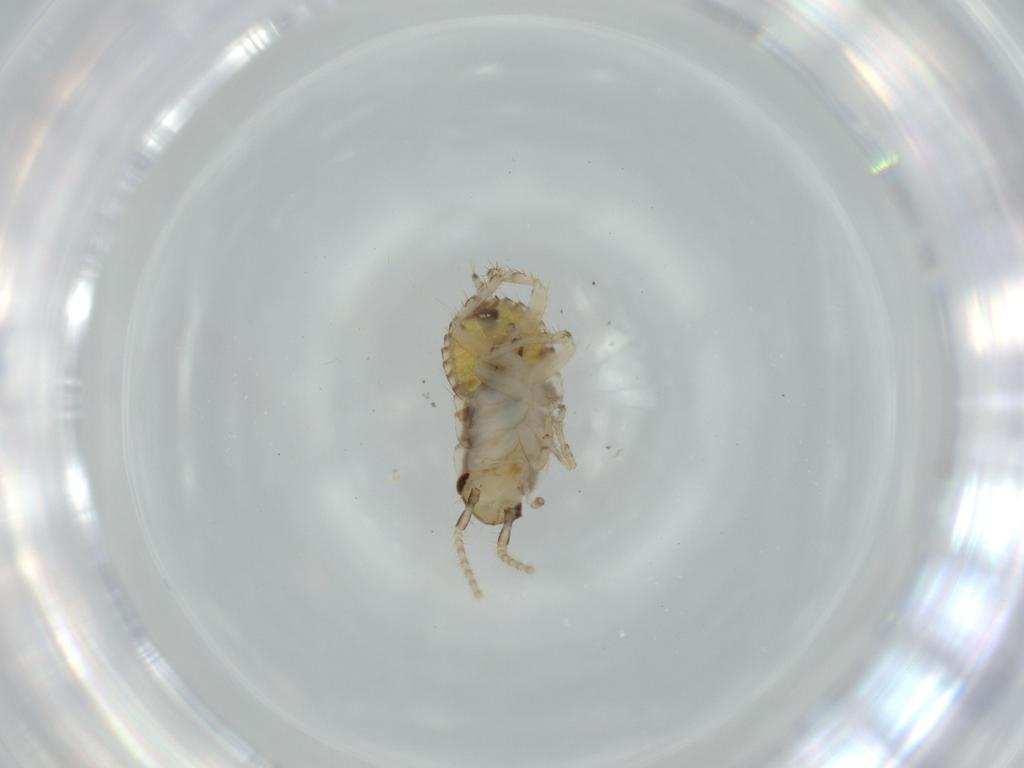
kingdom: Animalia
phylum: Arthropoda
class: Insecta
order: Blattodea
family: Ectobiidae
